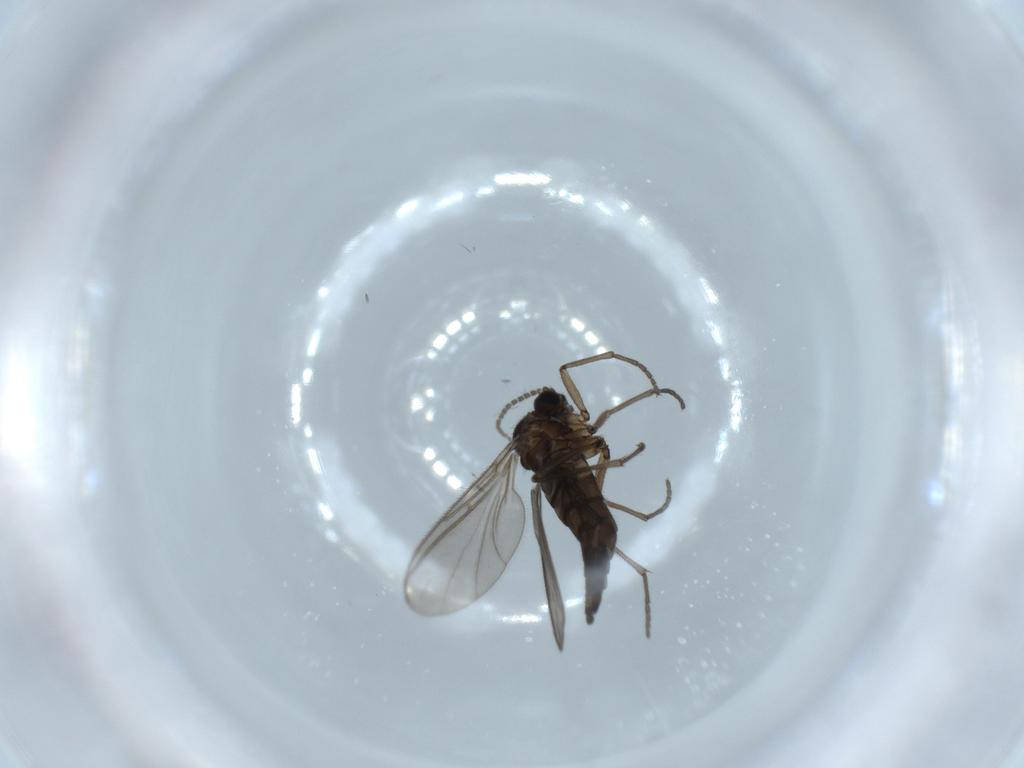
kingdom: Animalia
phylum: Arthropoda
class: Insecta
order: Diptera
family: Sciaridae
